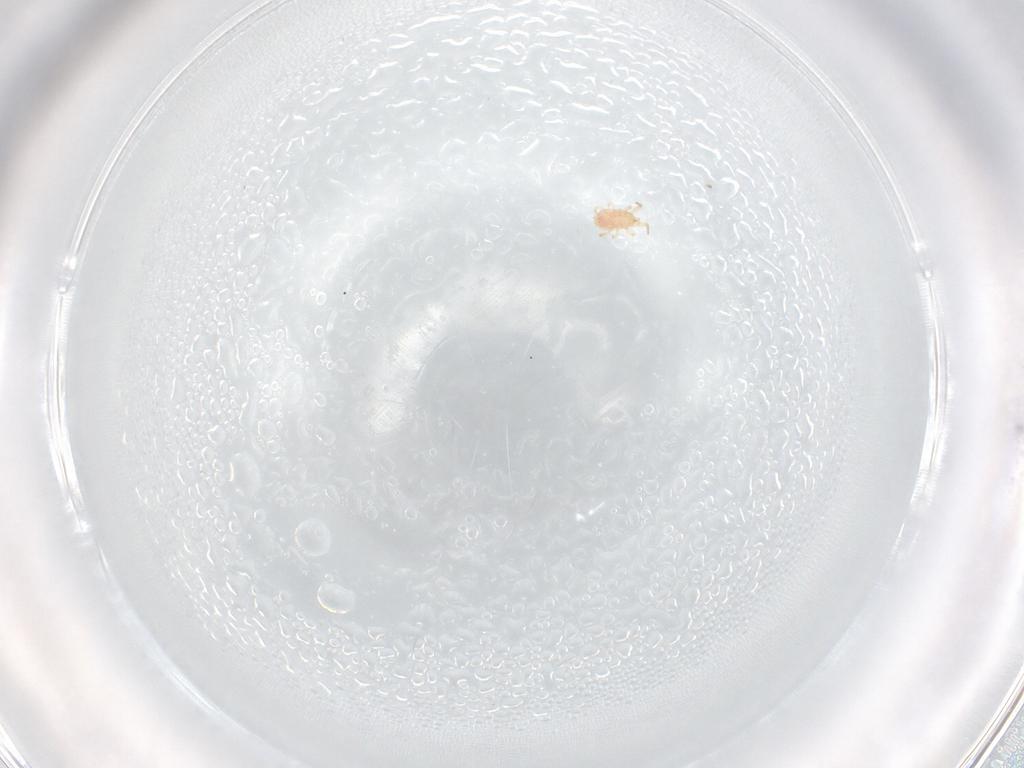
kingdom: Animalia
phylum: Arthropoda
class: Arachnida
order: Mesostigmata
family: Phytoseiidae
